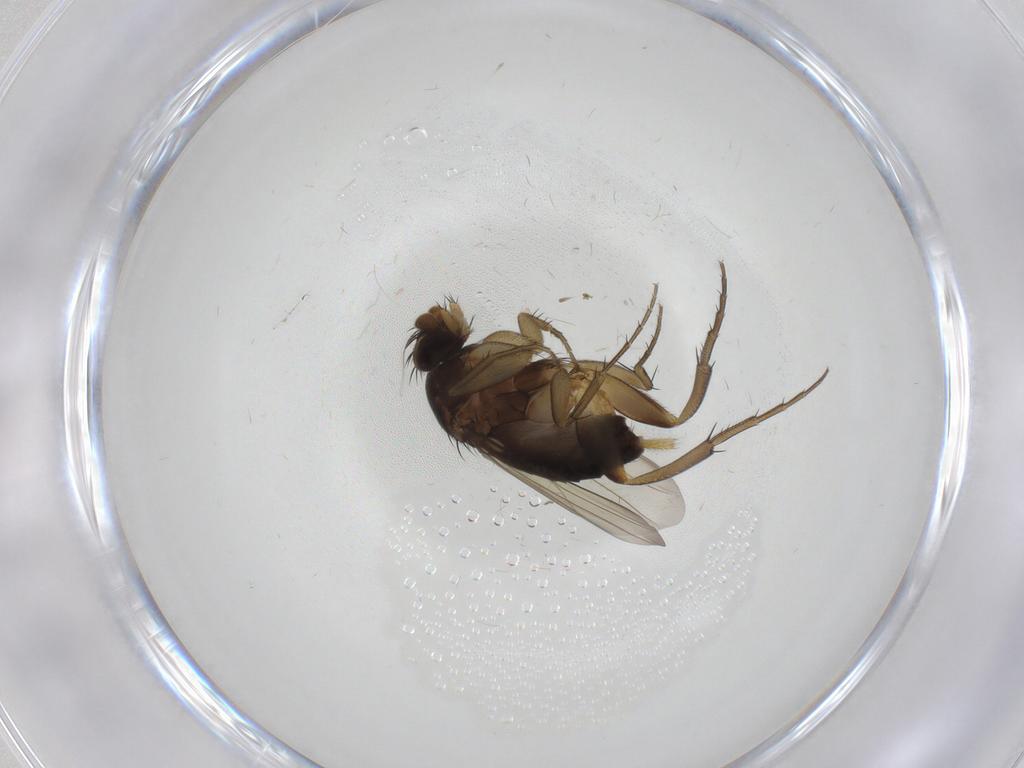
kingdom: Animalia
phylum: Arthropoda
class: Insecta
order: Diptera
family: Phoridae
